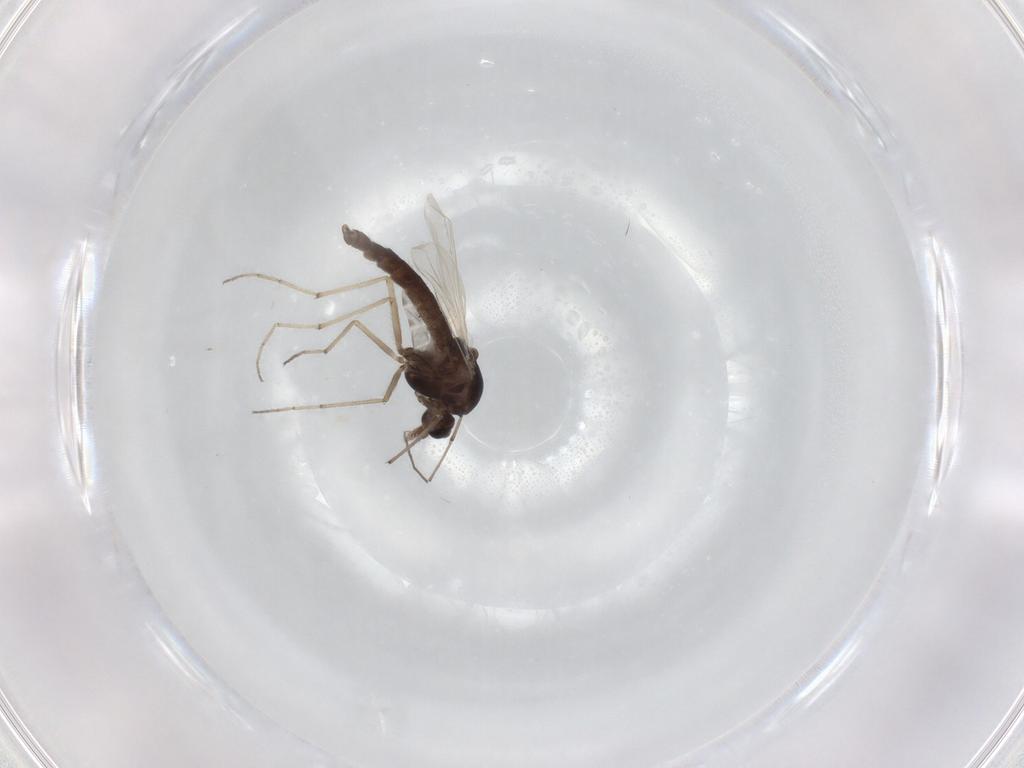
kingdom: Animalia
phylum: Arthropoda
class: Insecta
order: Diptera
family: Chironomidae
